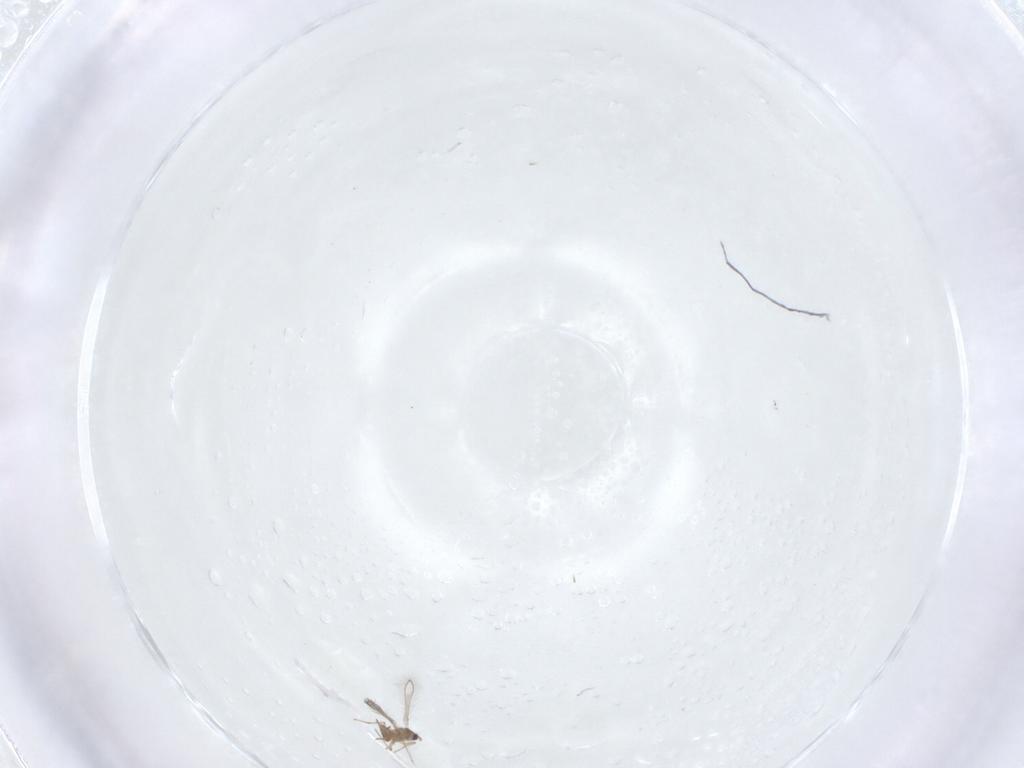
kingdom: Animalia
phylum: Arthropoda
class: Insecta
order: Hymenoptera
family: Mymaridae
